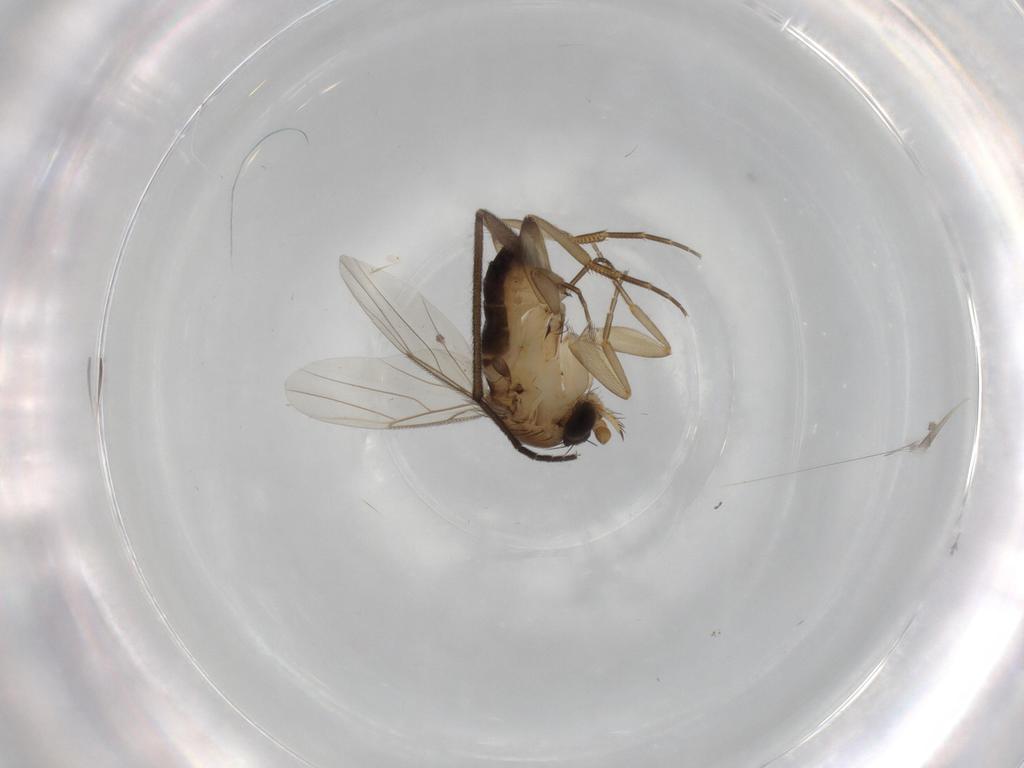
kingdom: Animalia
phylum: Arthropoda
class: Insecta
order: Diptera
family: Phoridae
